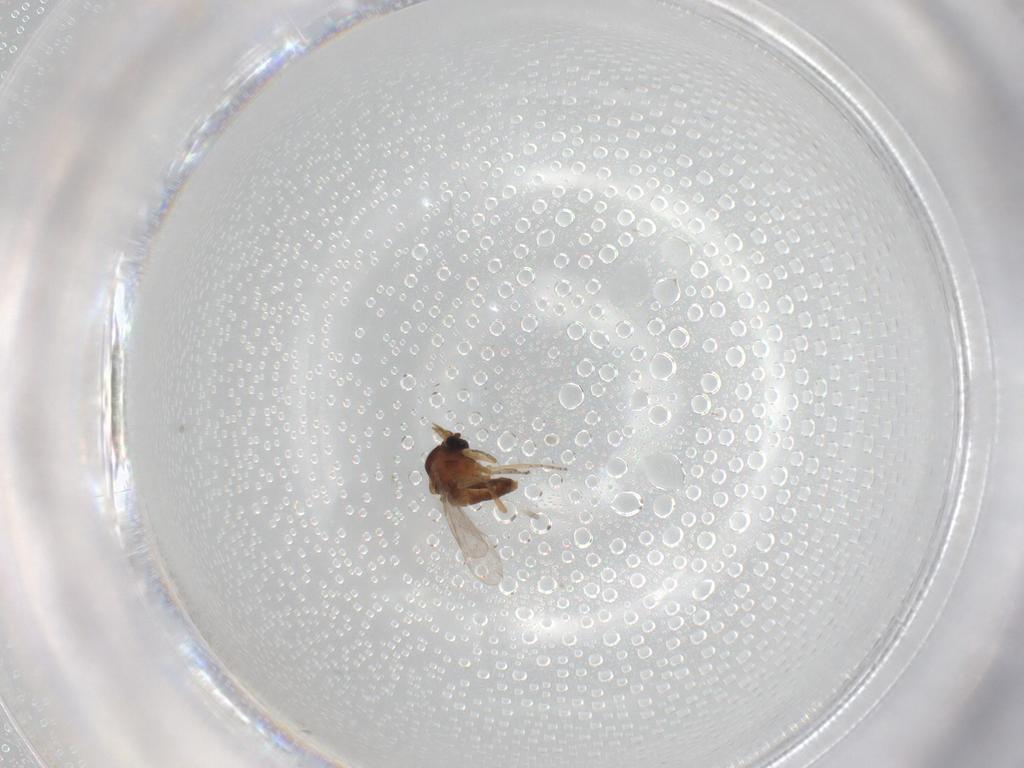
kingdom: Animalia
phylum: Arthropoda
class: Insecta
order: Diptera
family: Ceratopogonidae
